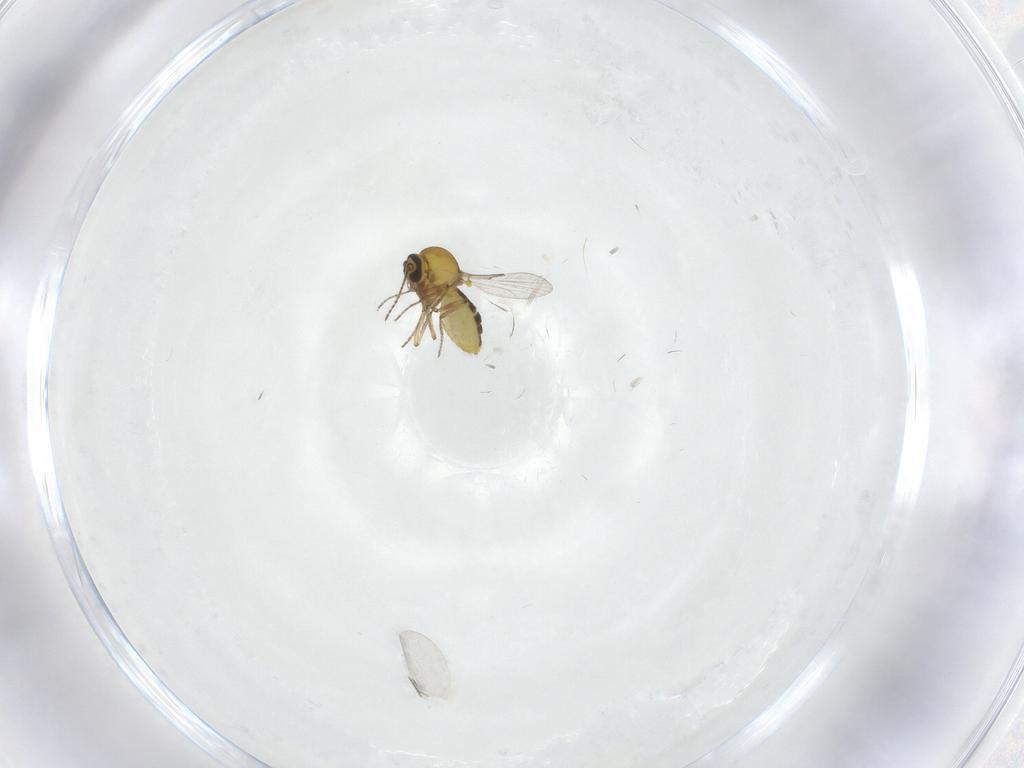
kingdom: Animalia
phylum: Arthropoda
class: Insecta
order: Diptera
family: Ceratopogonidae
